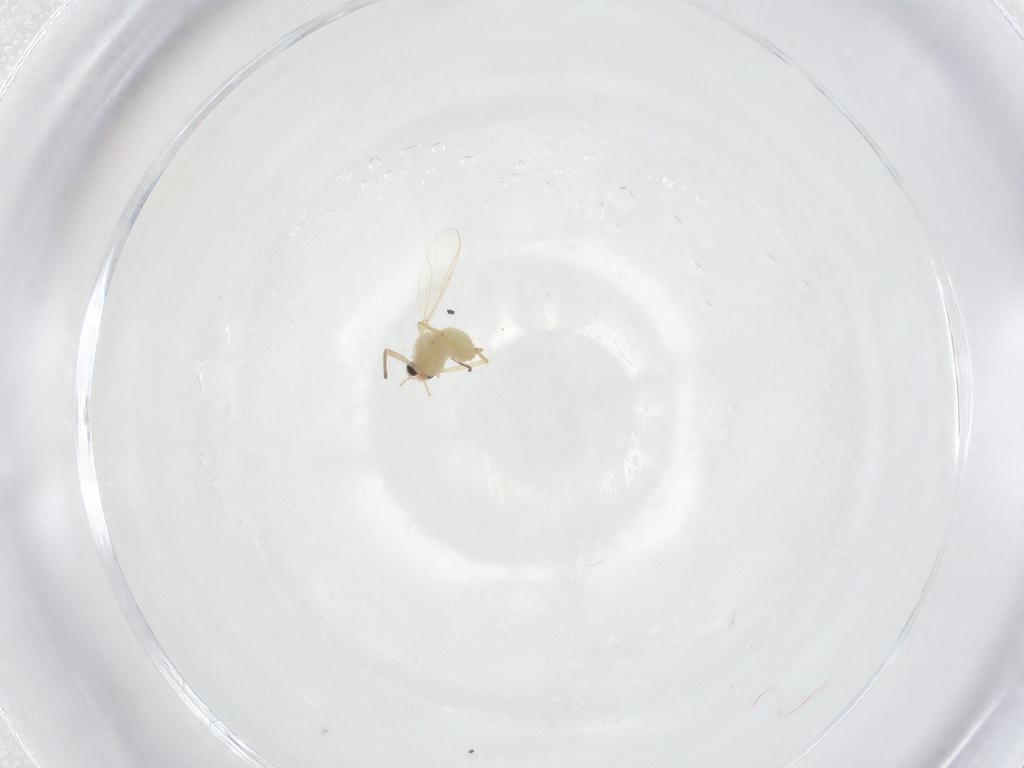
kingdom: Animalia
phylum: Arthropoda
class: Insecta
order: Diptera
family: Chironomidae
